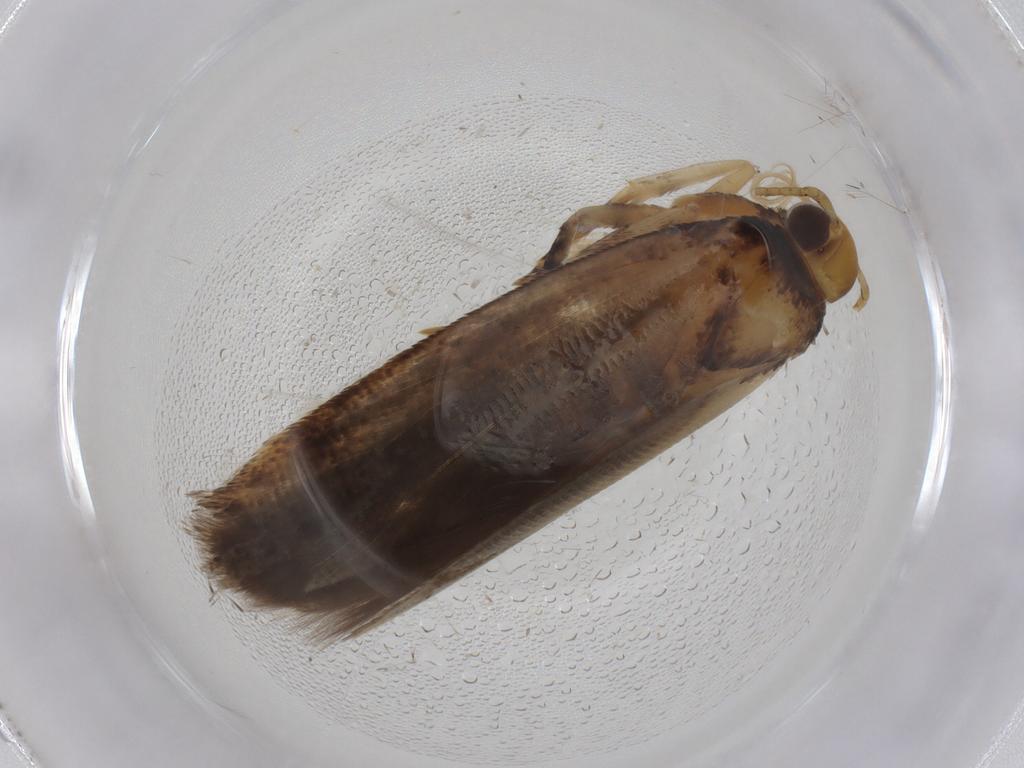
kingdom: Animalia
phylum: Arthropoda
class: Insecta
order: Lepidoptera
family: Gelechiidae
